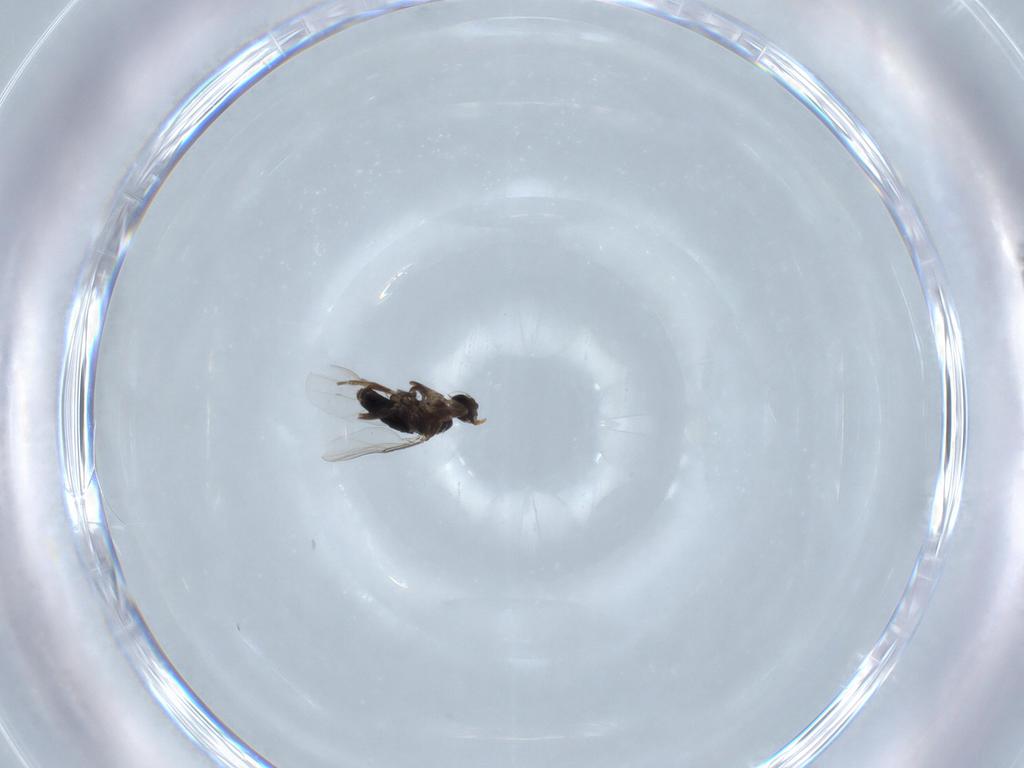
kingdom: Animalia
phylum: Arthropoda
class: Insecta
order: Diptera
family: Phoridae
